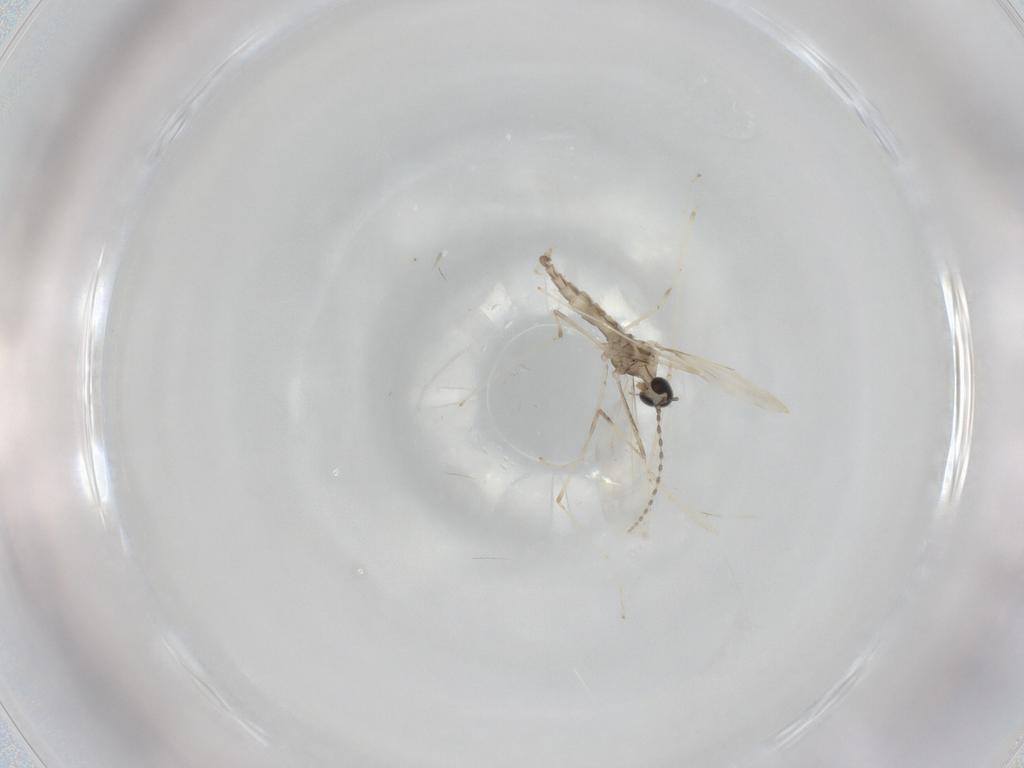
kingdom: Animalia
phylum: Arthropoda
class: Insecta
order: Diptera
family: Cecidomyiidae
